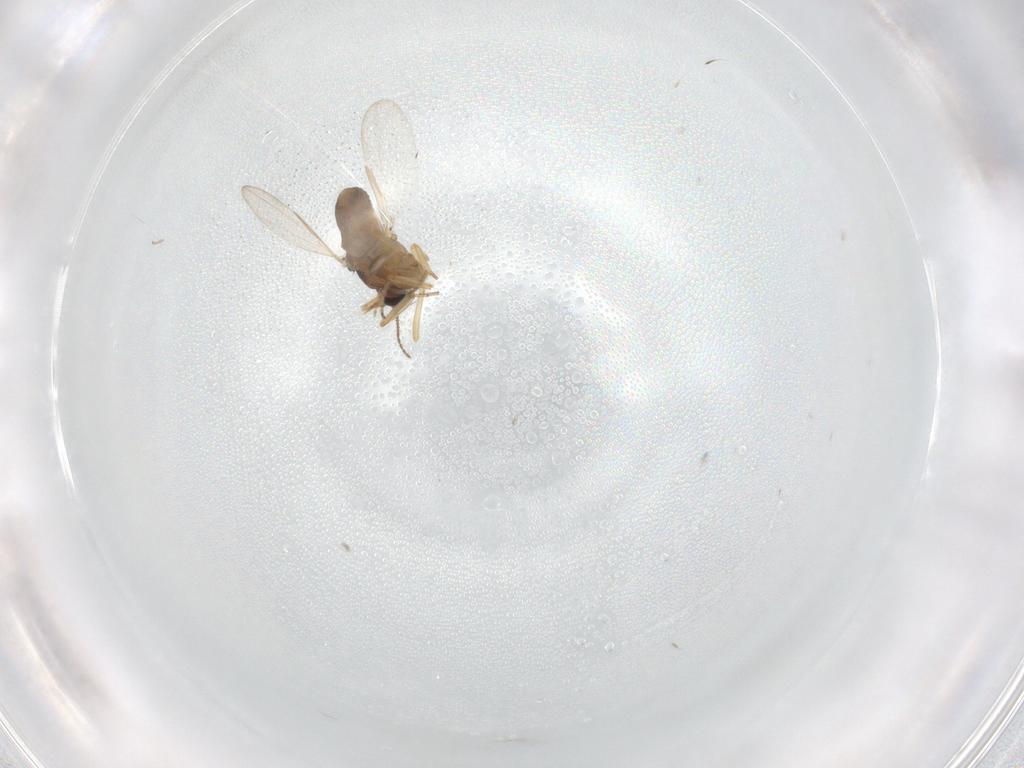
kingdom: Animalia
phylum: Arthropoda
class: Insecta
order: Diptera
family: Ceratopogonidae
